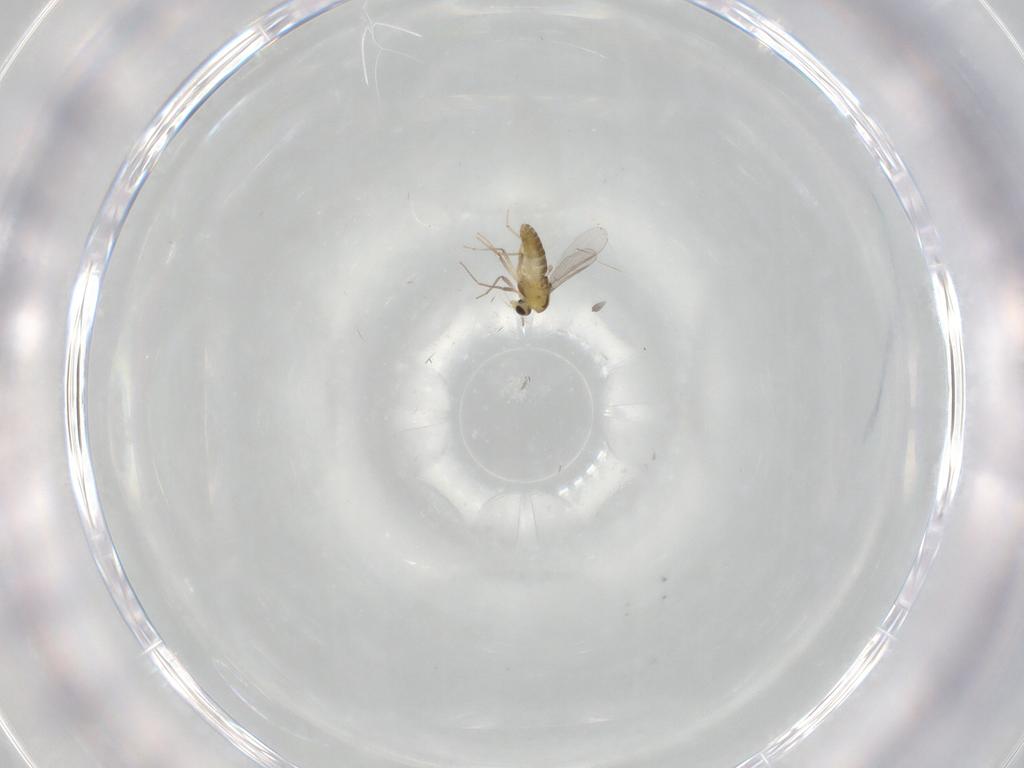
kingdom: Animalia
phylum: Arthropoda
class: Insecta
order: Diptera
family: Chironomidae
